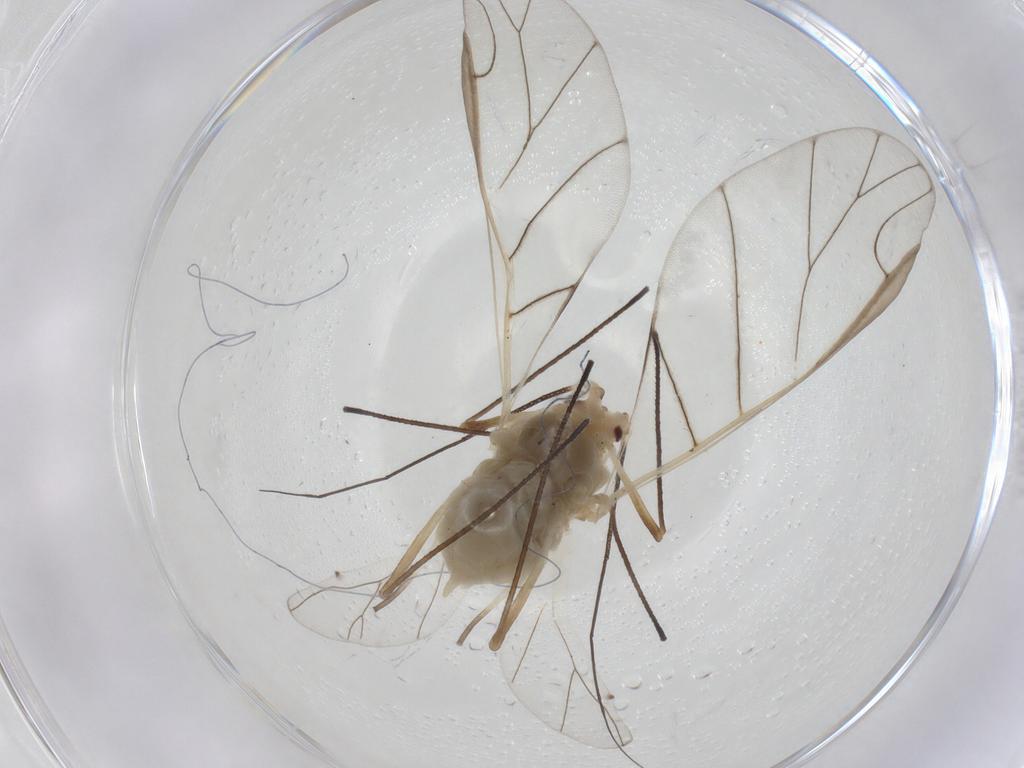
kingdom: Animalia
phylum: Arthropoda
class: Insecta
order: Hemiptera
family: Aphididae
